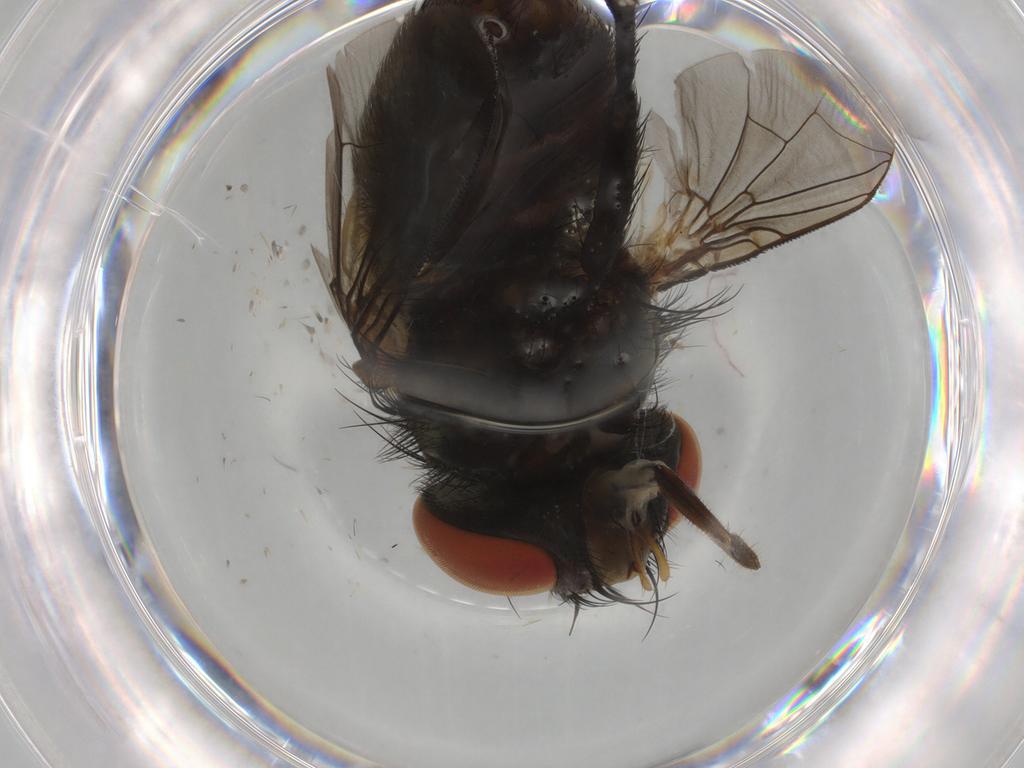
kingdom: Animalia
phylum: Arthropoda
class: Insecta
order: Diptera
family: Sarcophagidae
